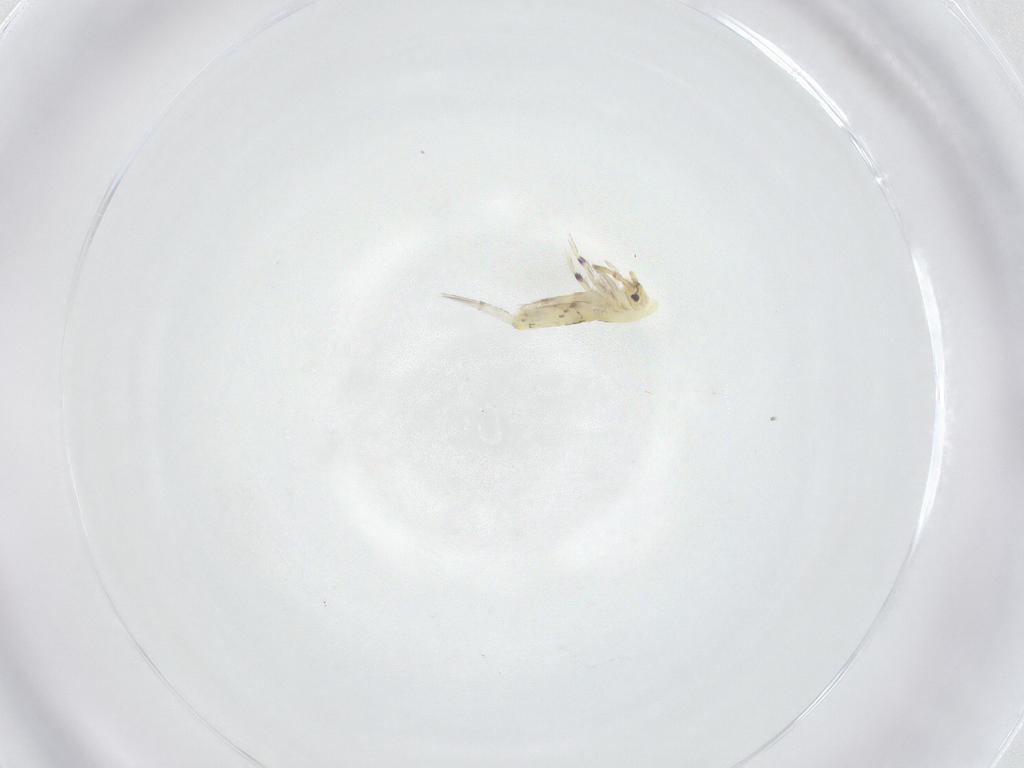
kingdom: Animalia
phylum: Arthropoda
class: Collembola
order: Entomobryomorpha
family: Entomobryidae
